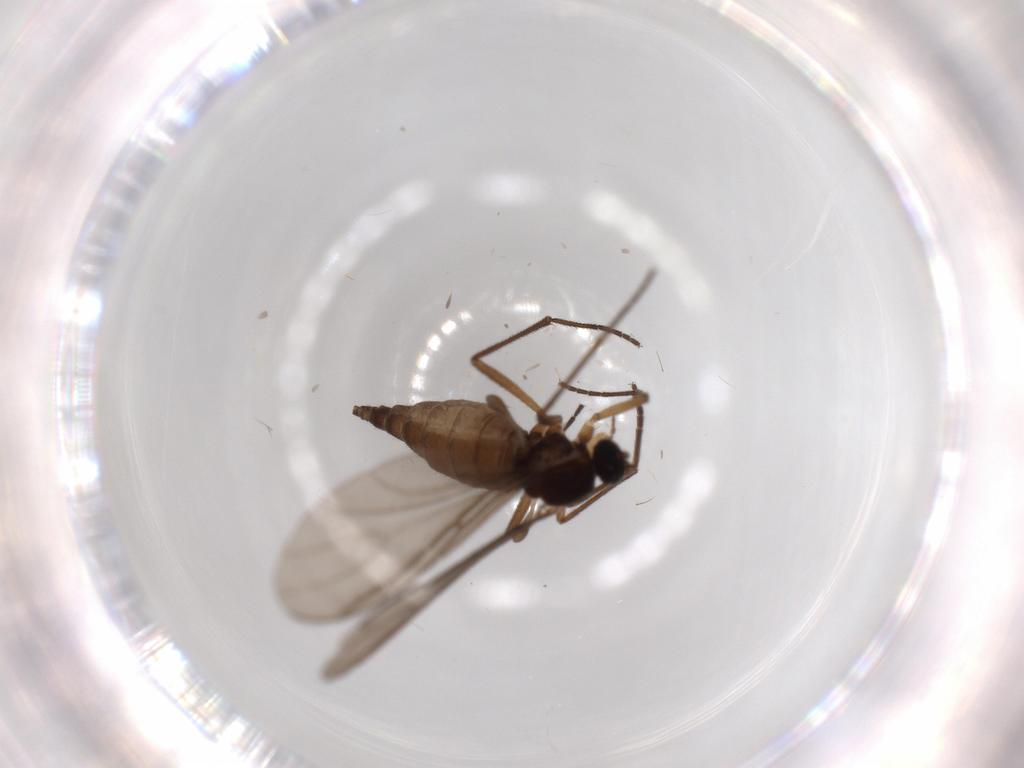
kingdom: Animalia
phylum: Arthropoda
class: Insecta
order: Diptera
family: Sciaridae
